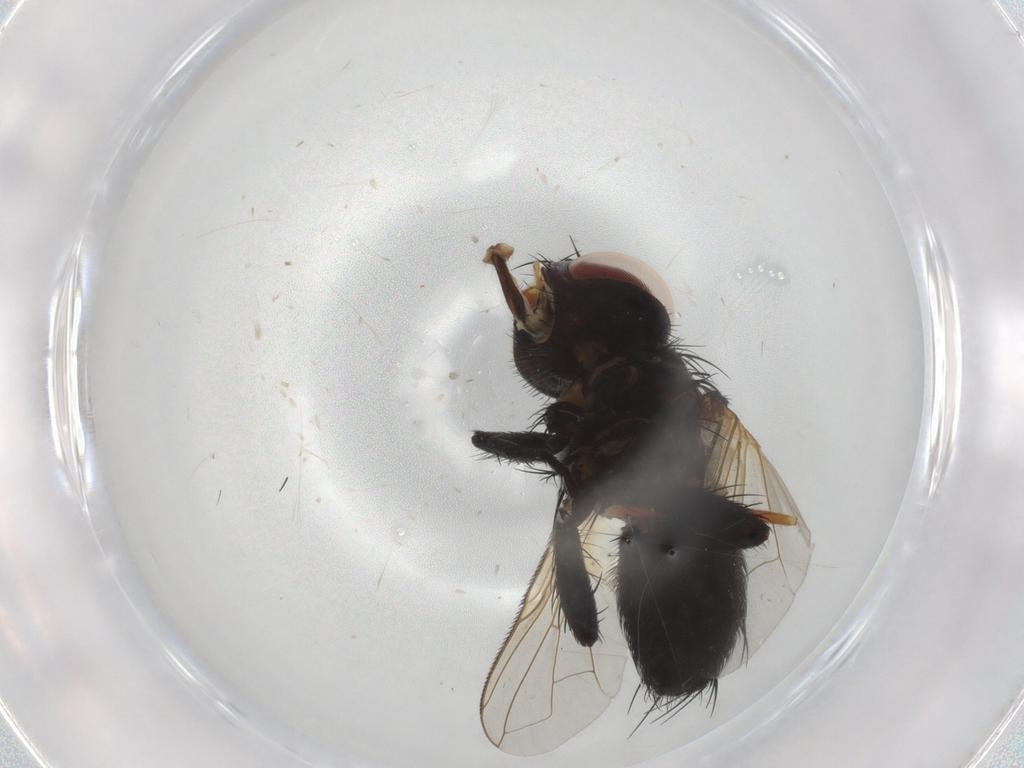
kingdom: Animalia
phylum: Arthropoda
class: Insecta
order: Diptera
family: Tachinidae
